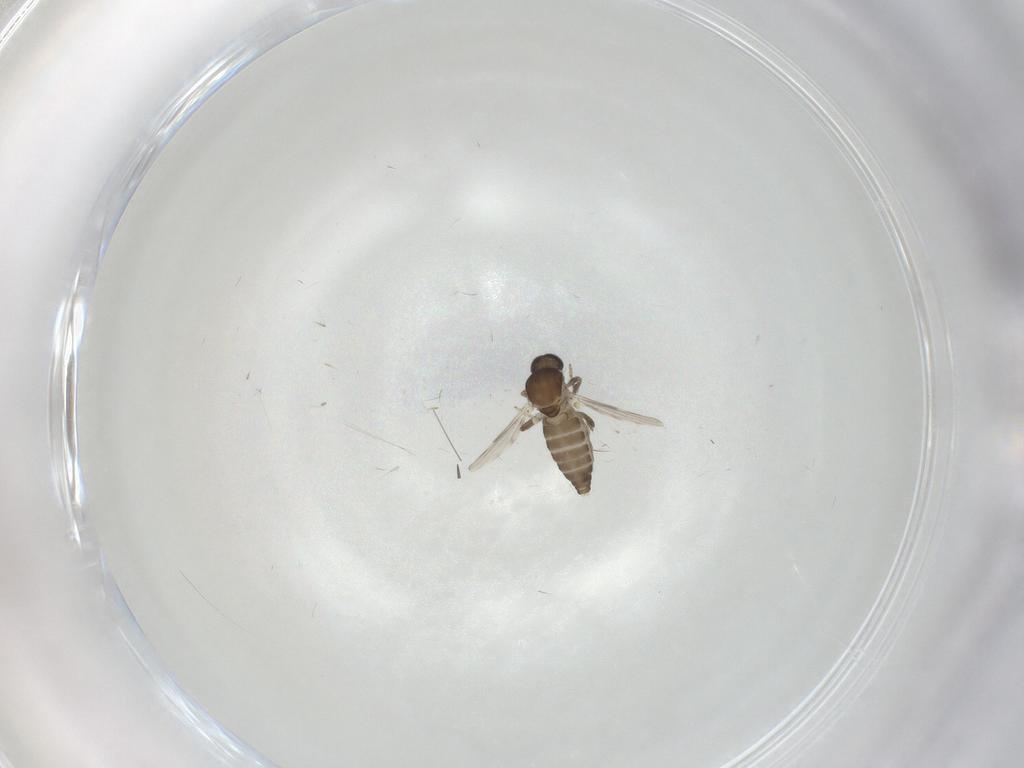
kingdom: Animalia
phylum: Arthropoda
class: Insecta
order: Diptera
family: Ceratopogonidae
